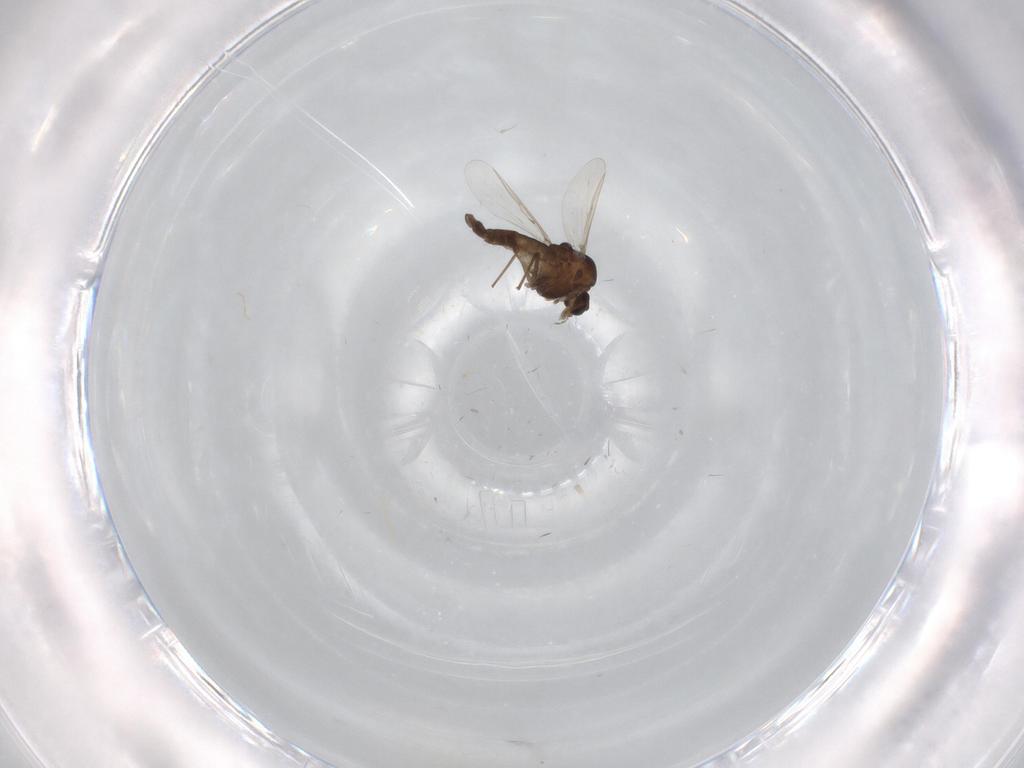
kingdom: Animalia
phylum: Arthropoda
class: Insecta
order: Diptera
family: Chironomidae
